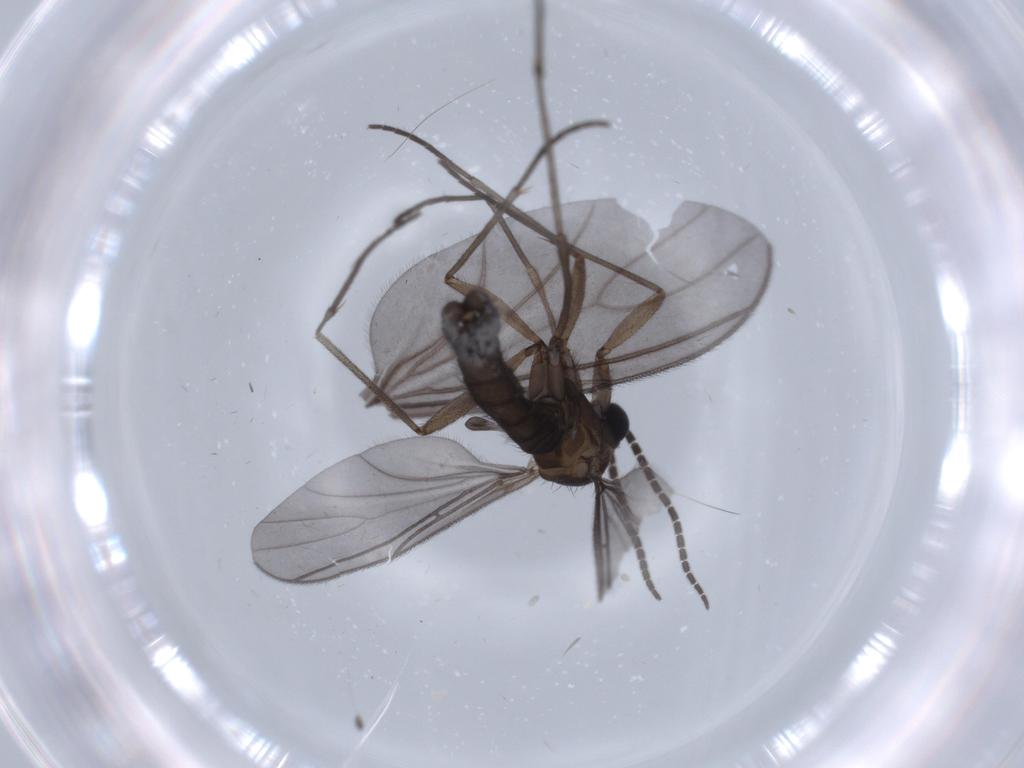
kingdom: Animalia
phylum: Arthropoda
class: Insecta
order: Diptera
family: Sciaridae
